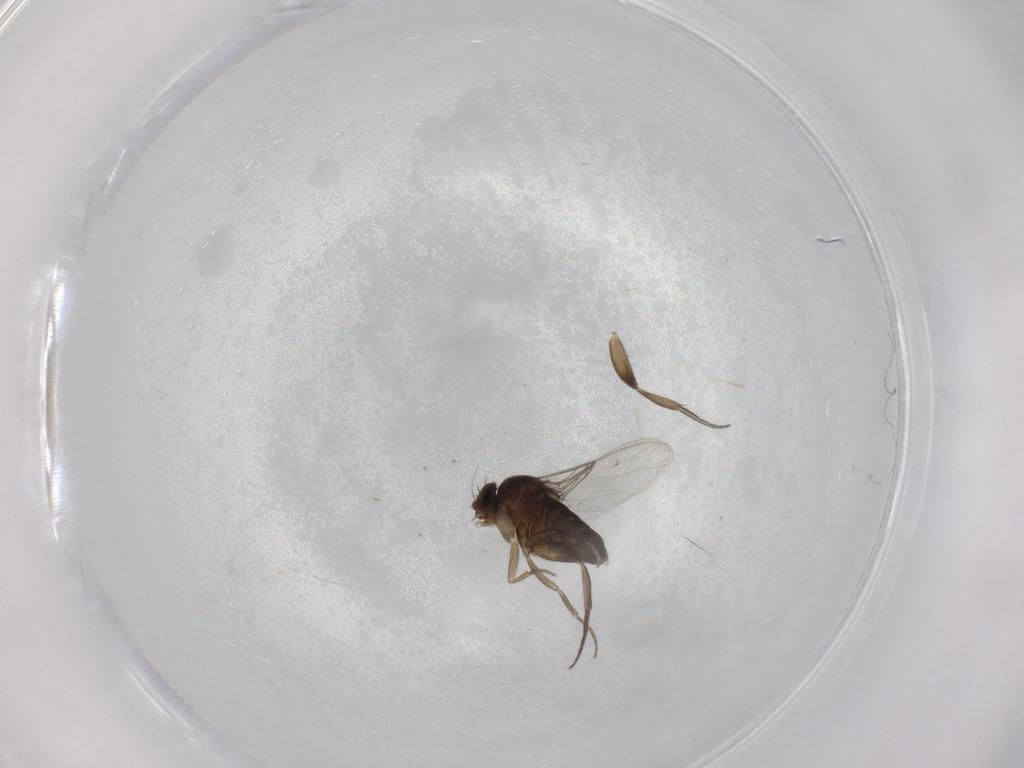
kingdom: Animalia
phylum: Arthropoda
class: Insecta
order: Diptera
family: Phoridae
